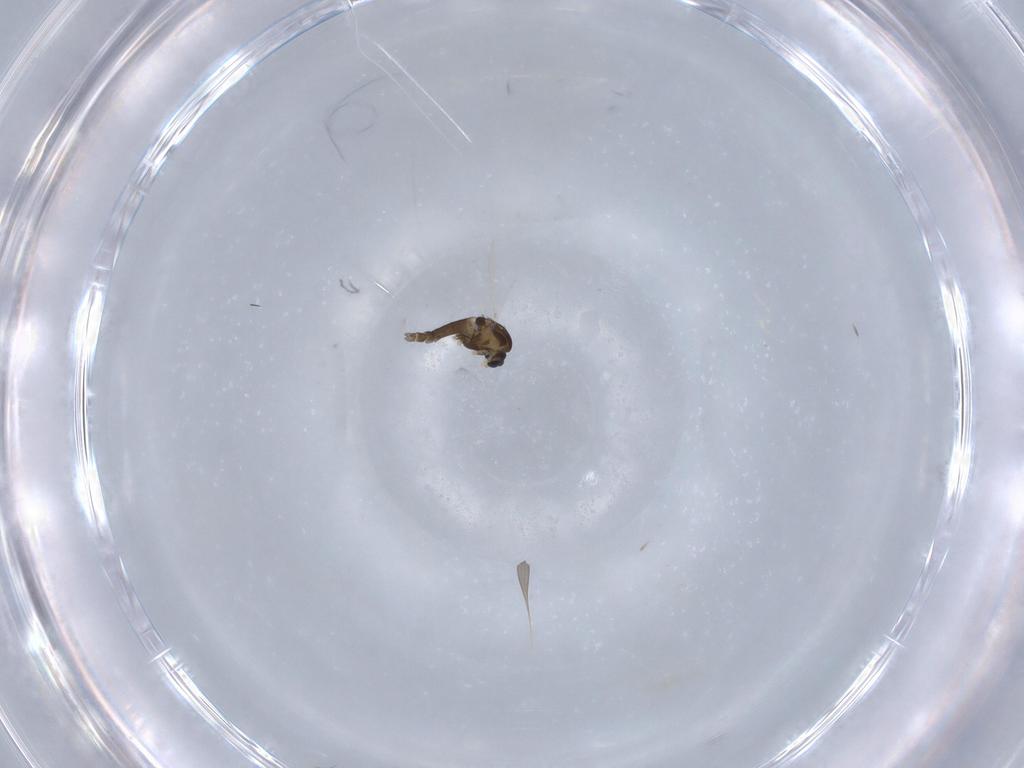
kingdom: Animalia
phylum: Arthropoda
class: Insecta
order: Diptera
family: Chironomidae
